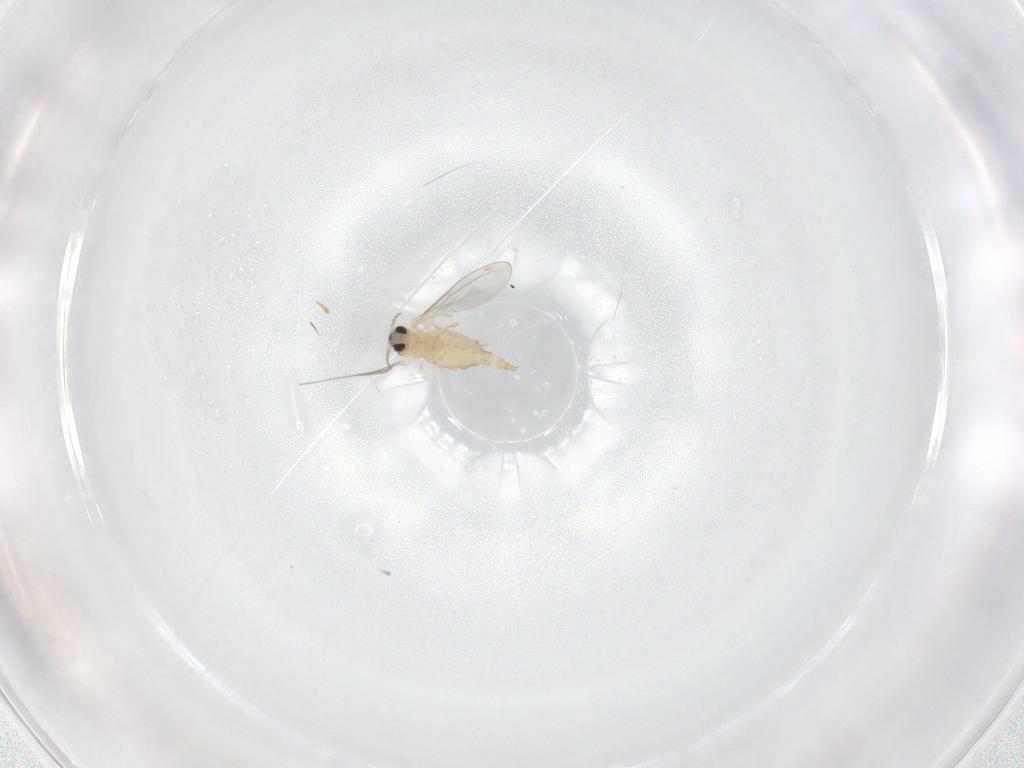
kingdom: Animalia
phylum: Arthropoda
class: Insecta
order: Diptera
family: Cecidomyiidae
